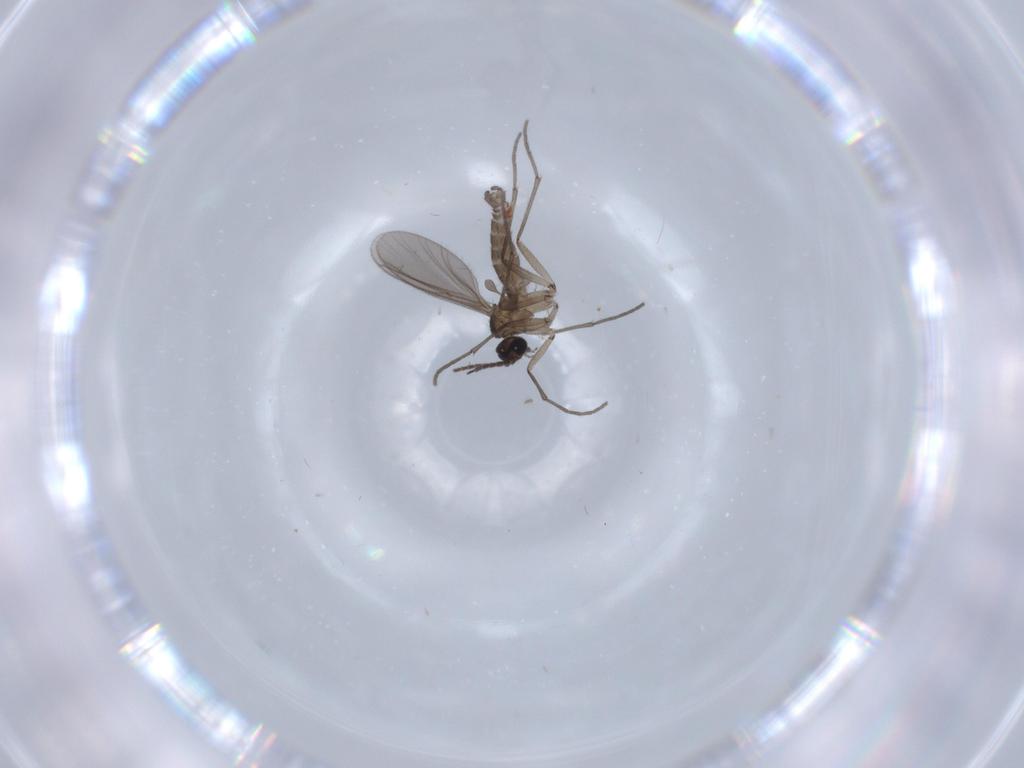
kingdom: Animalia
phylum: Arthropoda
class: Insecta
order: Diptera
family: Sciaridae
